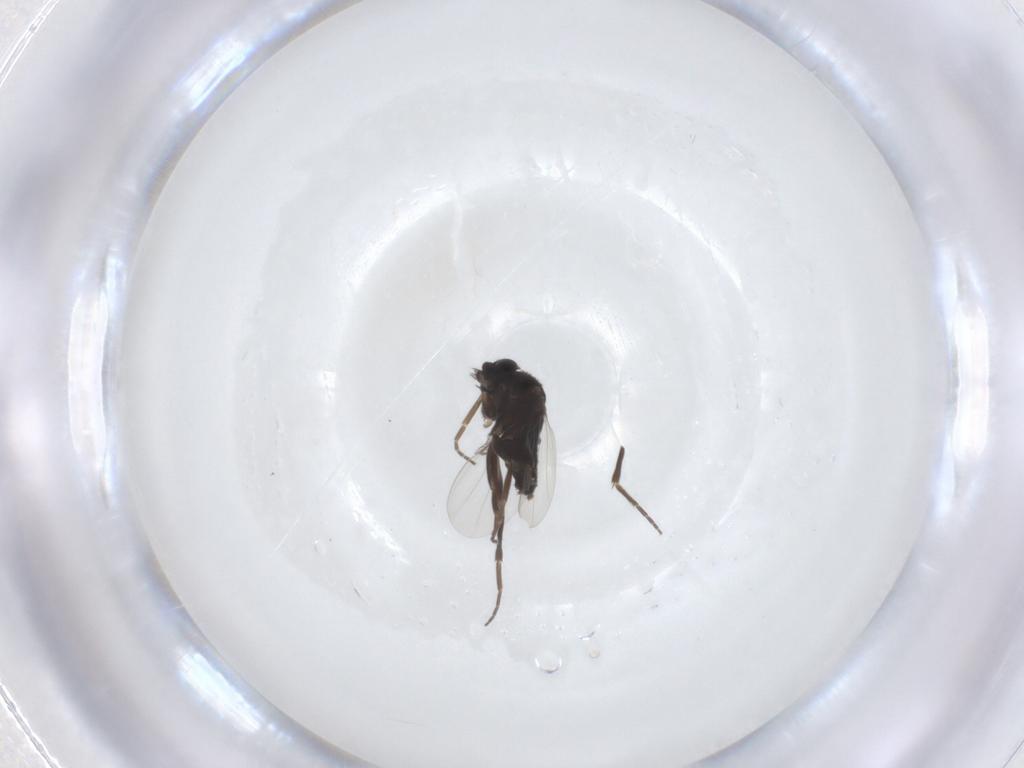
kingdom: Animalia
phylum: Arthropoda
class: Insecta
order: Diptera
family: Phoridae
